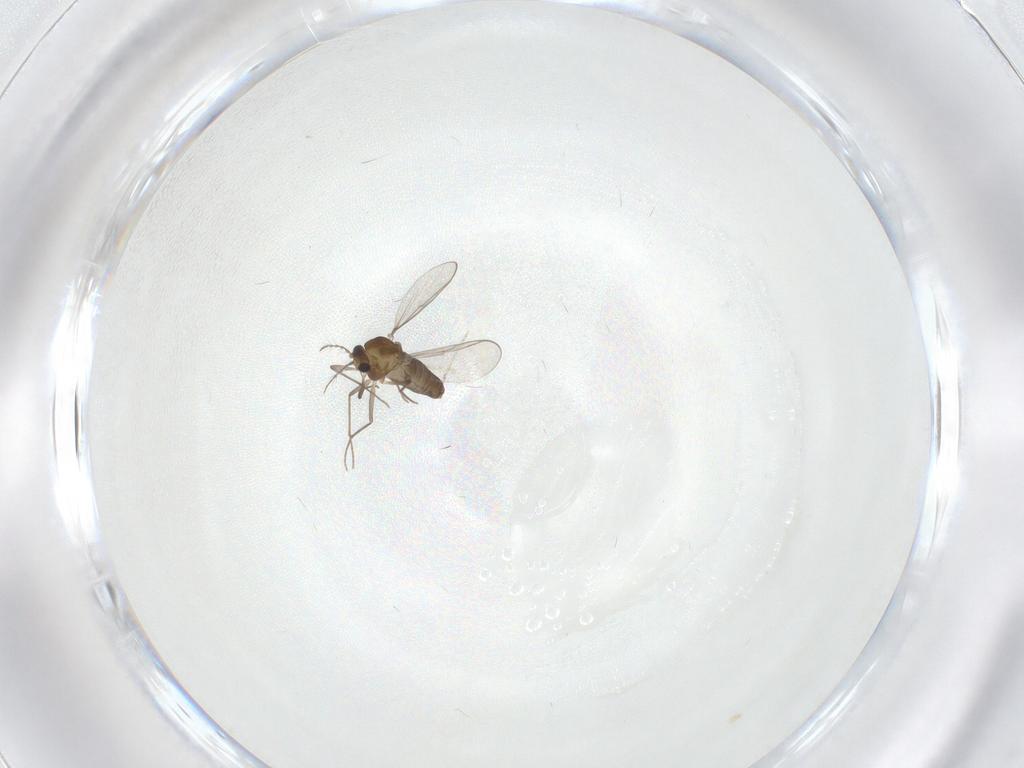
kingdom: Animalia
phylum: Arthropoda
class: Insecta
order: Diptera
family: Chironomidae
